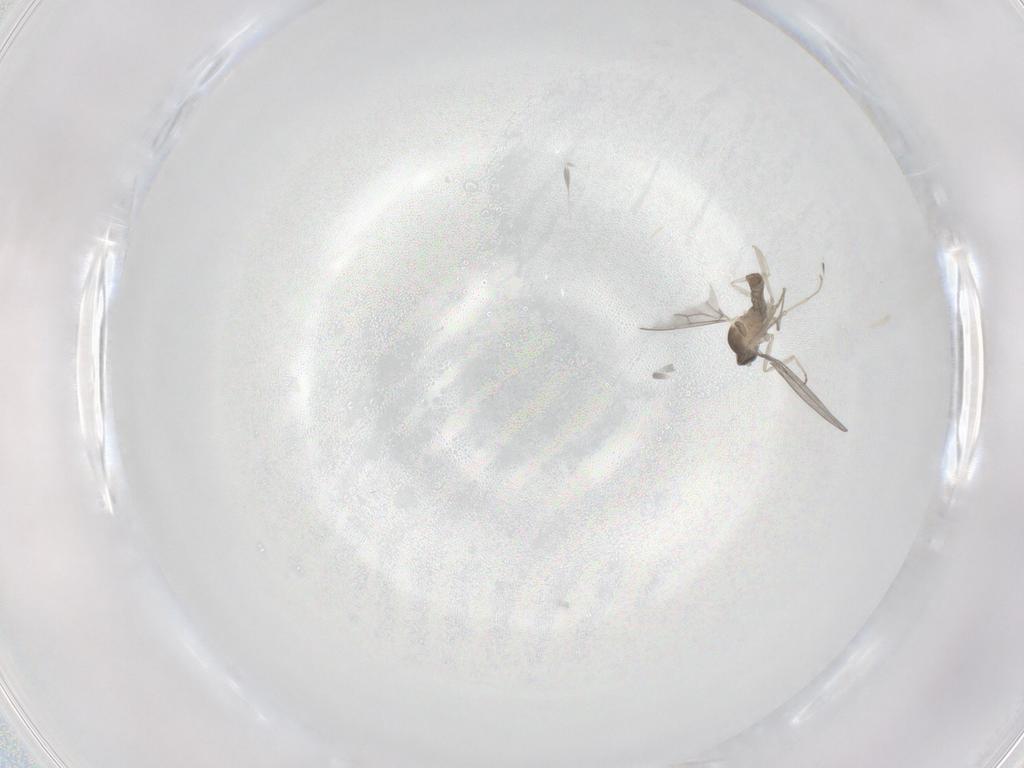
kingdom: Animalia
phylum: Arthropoda
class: Insecta
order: Diptera
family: Cecidomyiidae
